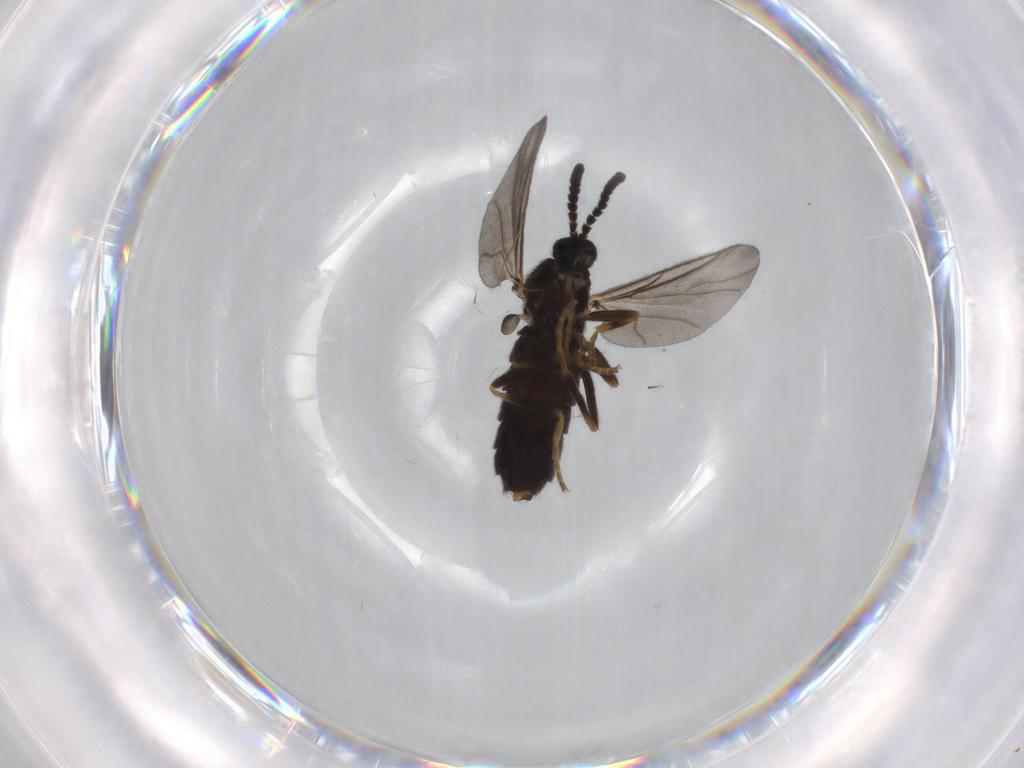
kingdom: Animalia
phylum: Arthropoda
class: Insecta
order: Diptera
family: Scatopsidae
